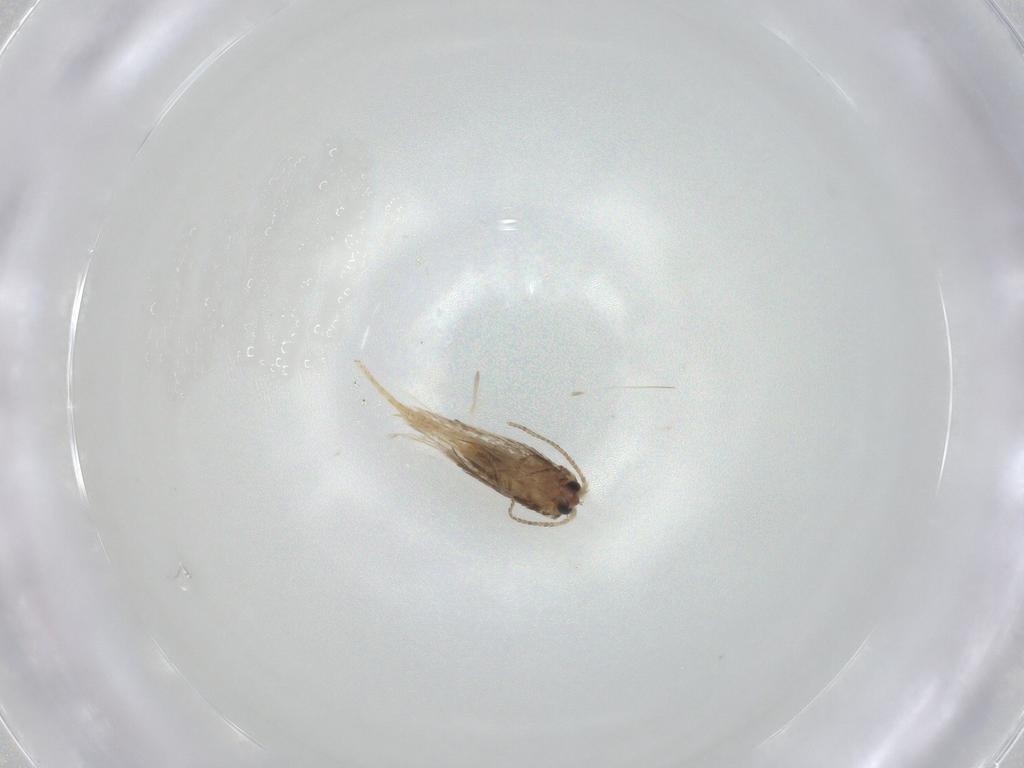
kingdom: Animalia
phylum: Arthropoda
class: Insecta
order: Lepidoptera
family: Nepticulidae
